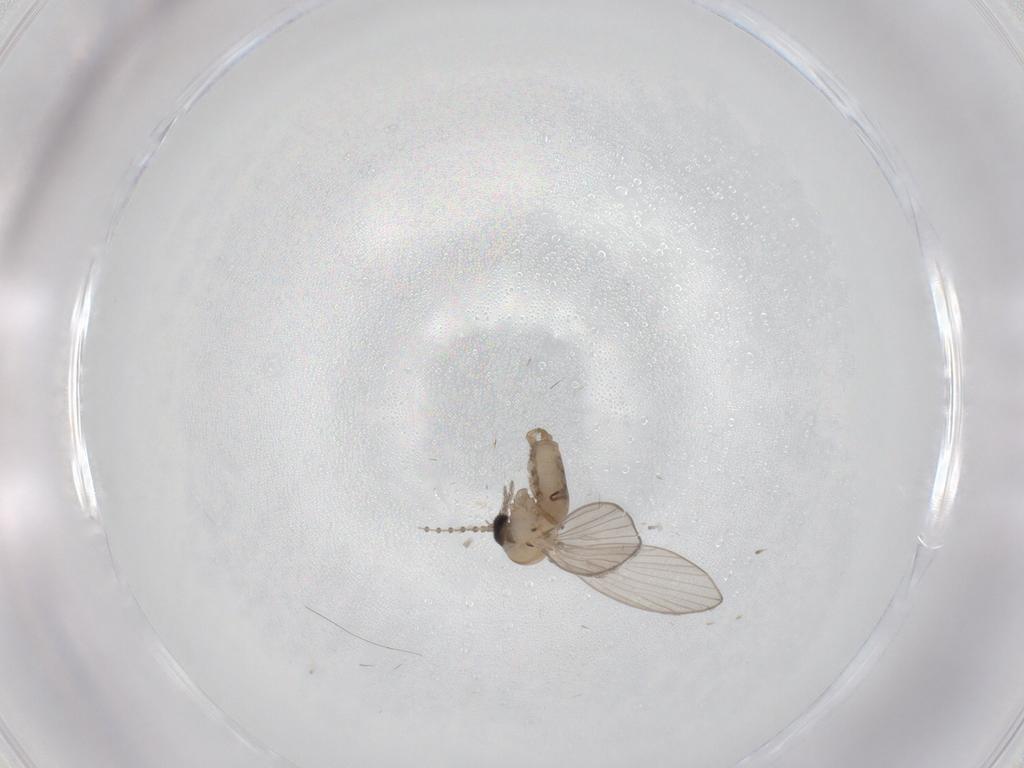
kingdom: Animalia
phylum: Arthropoda
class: Insecta
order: Diptera
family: Psychodidae
